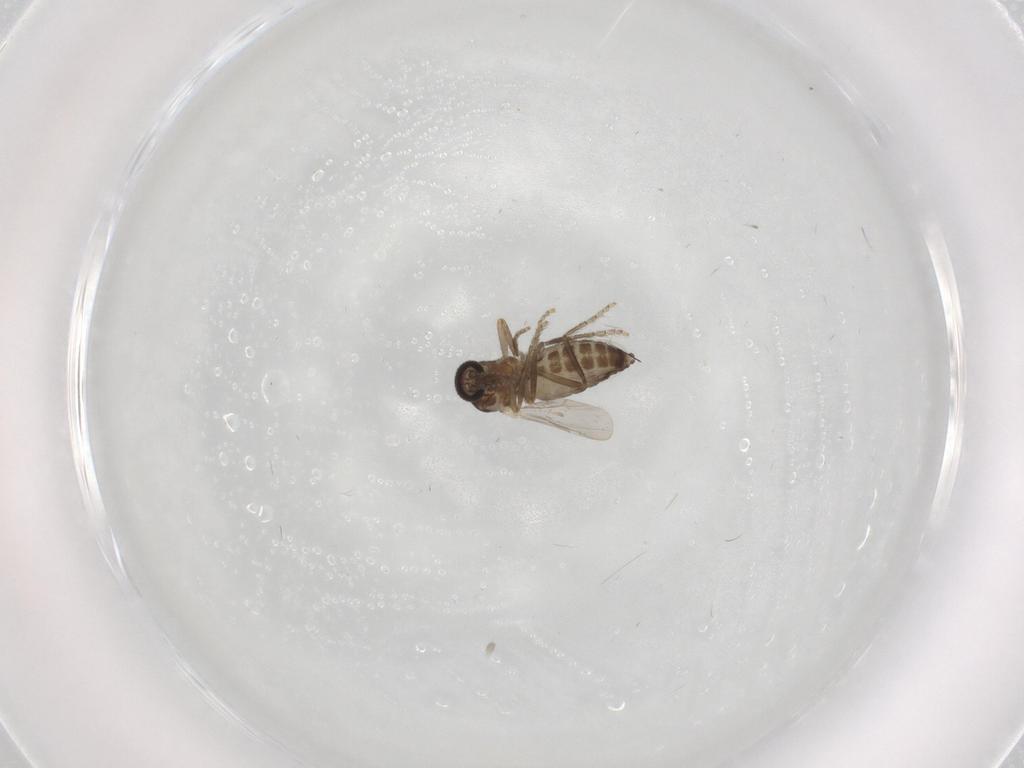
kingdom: Animalia
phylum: Arthropoda
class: Insecta
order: Diptera
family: Ceratopogonidae
